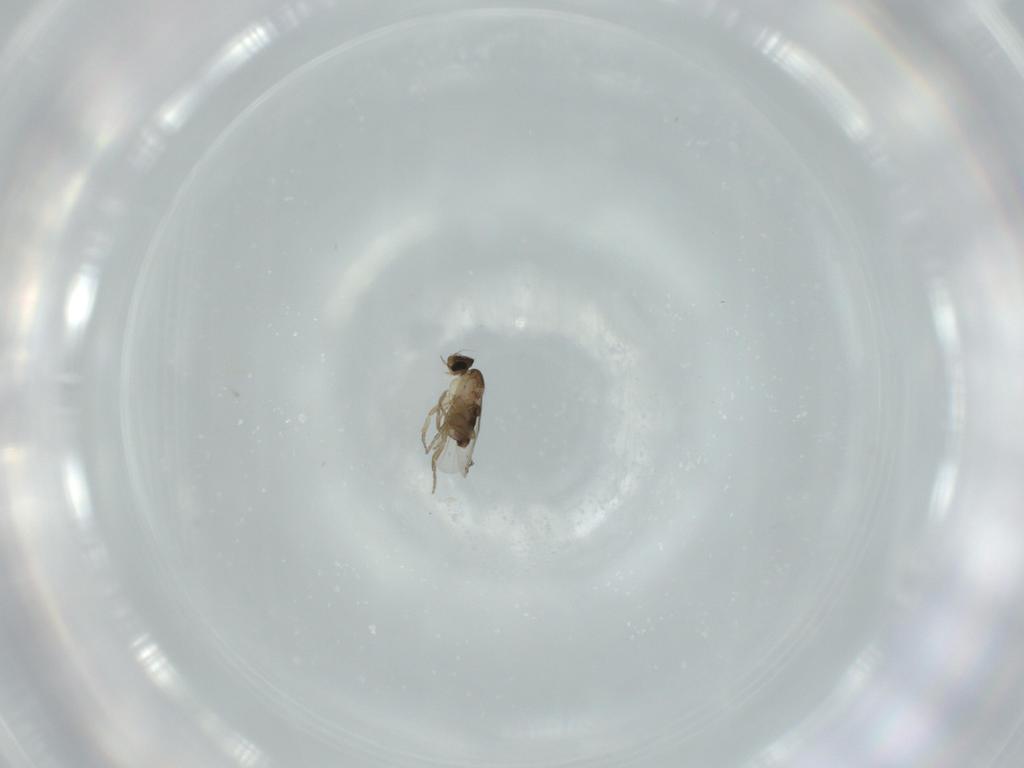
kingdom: Animalia
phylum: Arthropoda
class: Insecta
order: Diptera
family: Phoridae
